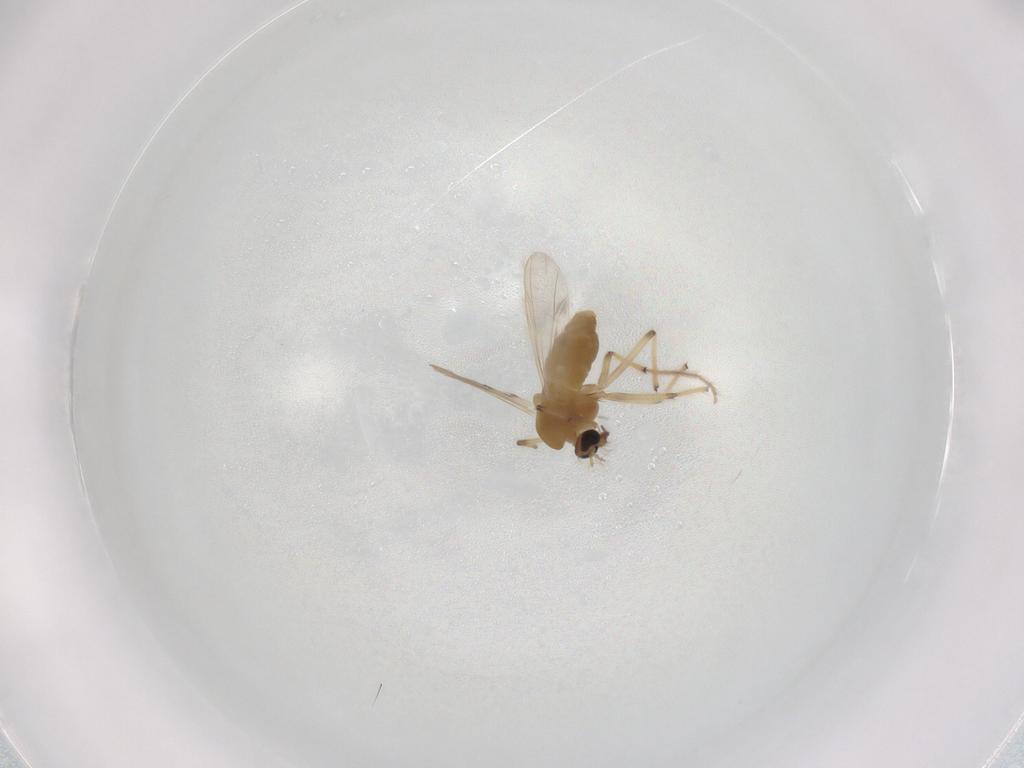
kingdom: Animalia
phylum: Arthropoda
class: Insecta
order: Diptera
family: Chironomidae
